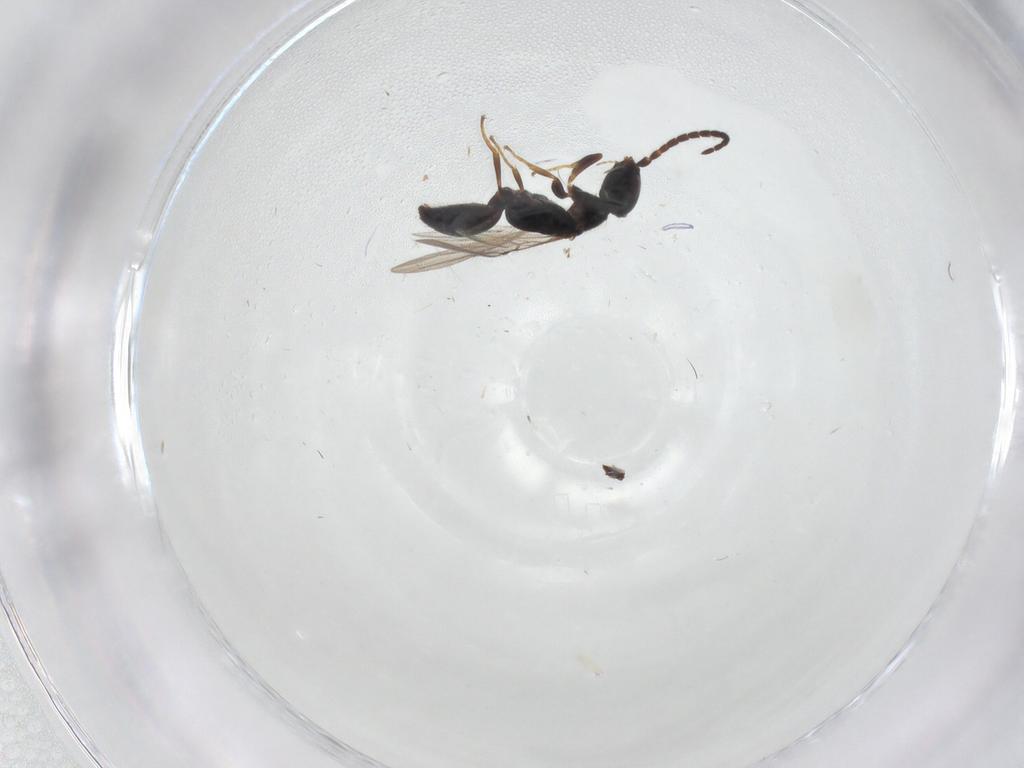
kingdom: Animalia
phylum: Arthropoda
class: Insecta
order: Hymenoptera
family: Bethylidae
